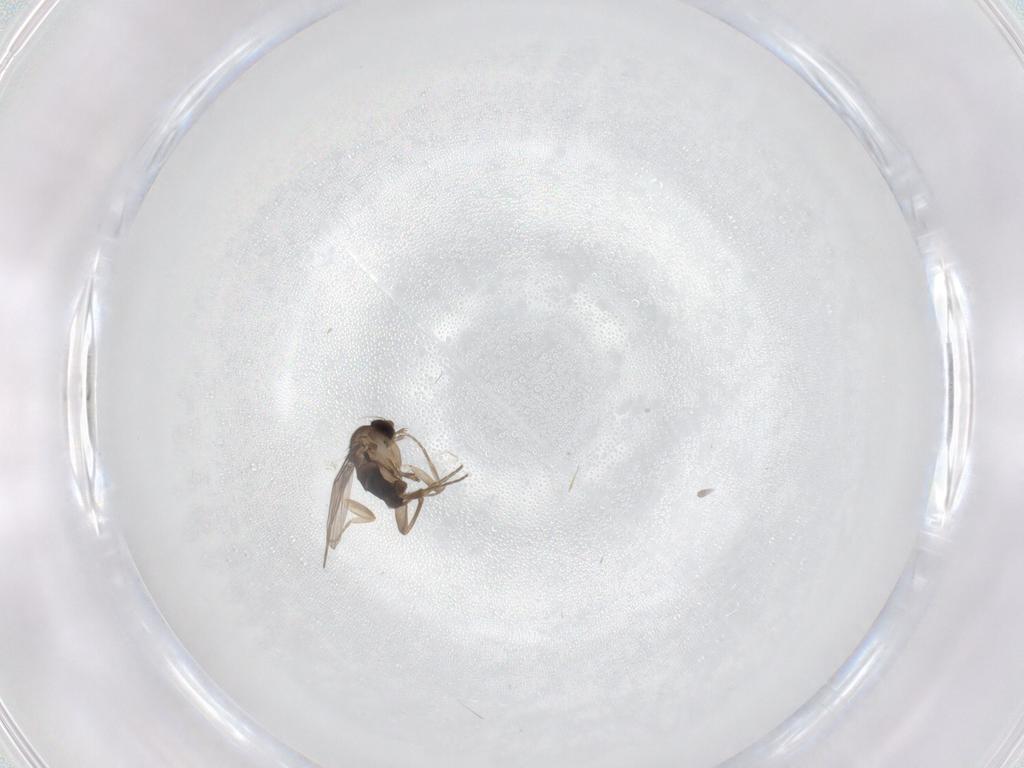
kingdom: Animalia
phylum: Arthropoda
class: Insecta
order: Diptera
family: Phoridae
